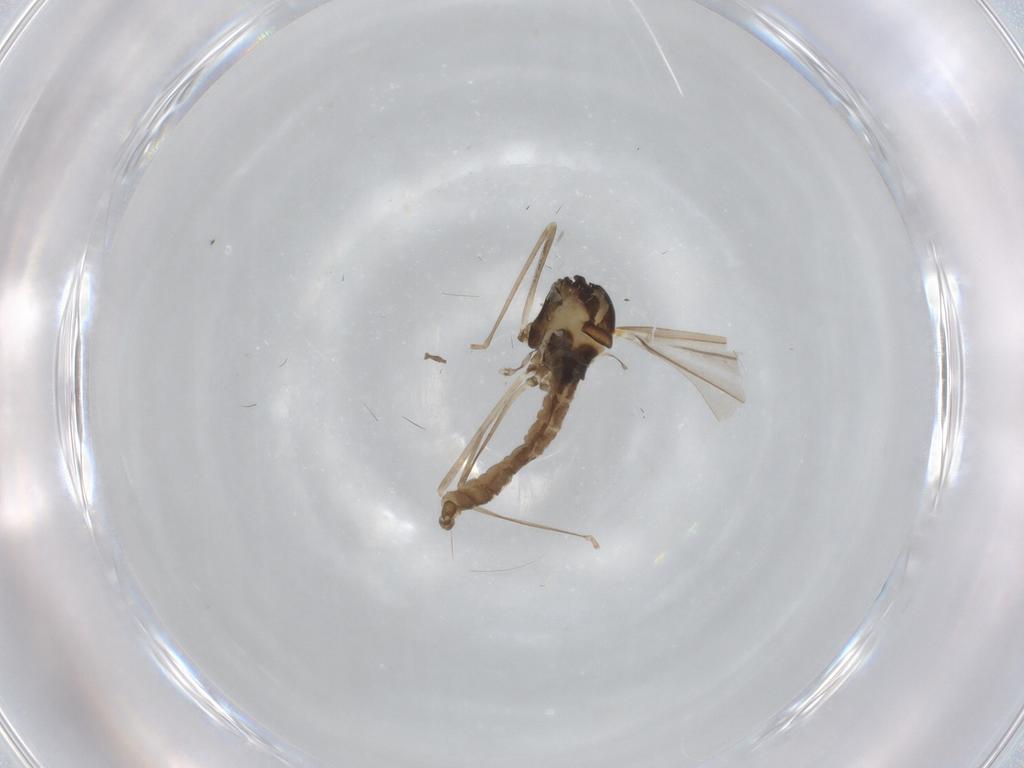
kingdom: Animalia
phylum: Arthropoda
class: Insecta
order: Diptera
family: Cecidomyiidae
